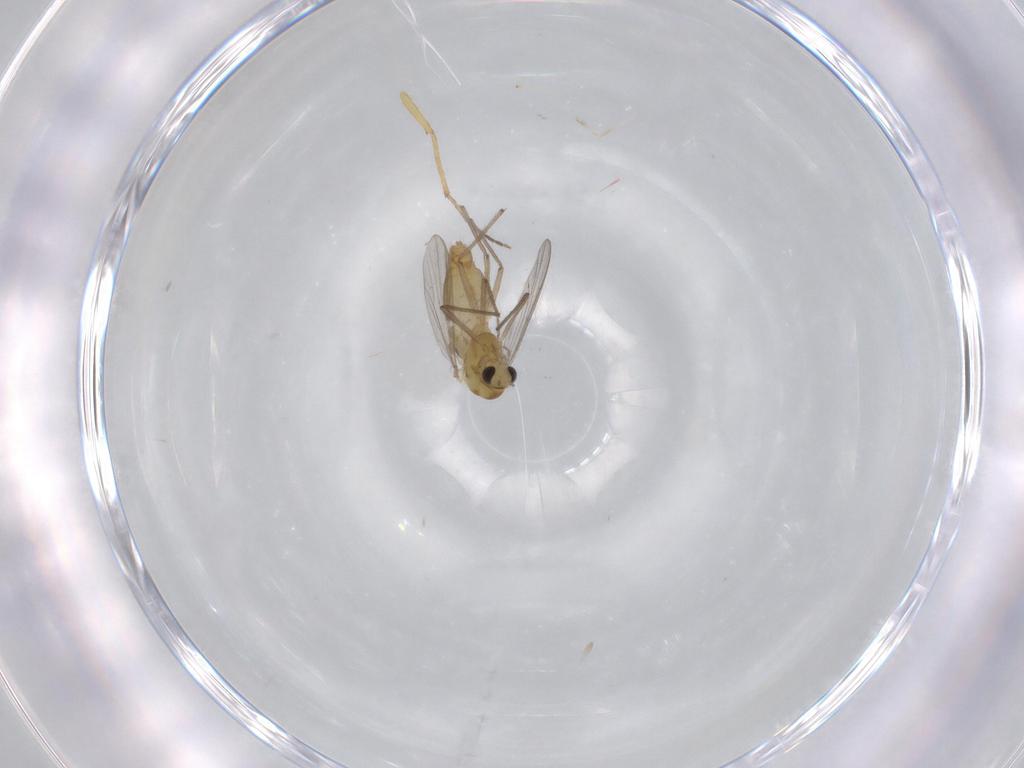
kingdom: Animalia
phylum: Arthropoda
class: Insecta
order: Diptera
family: Chironomidae
